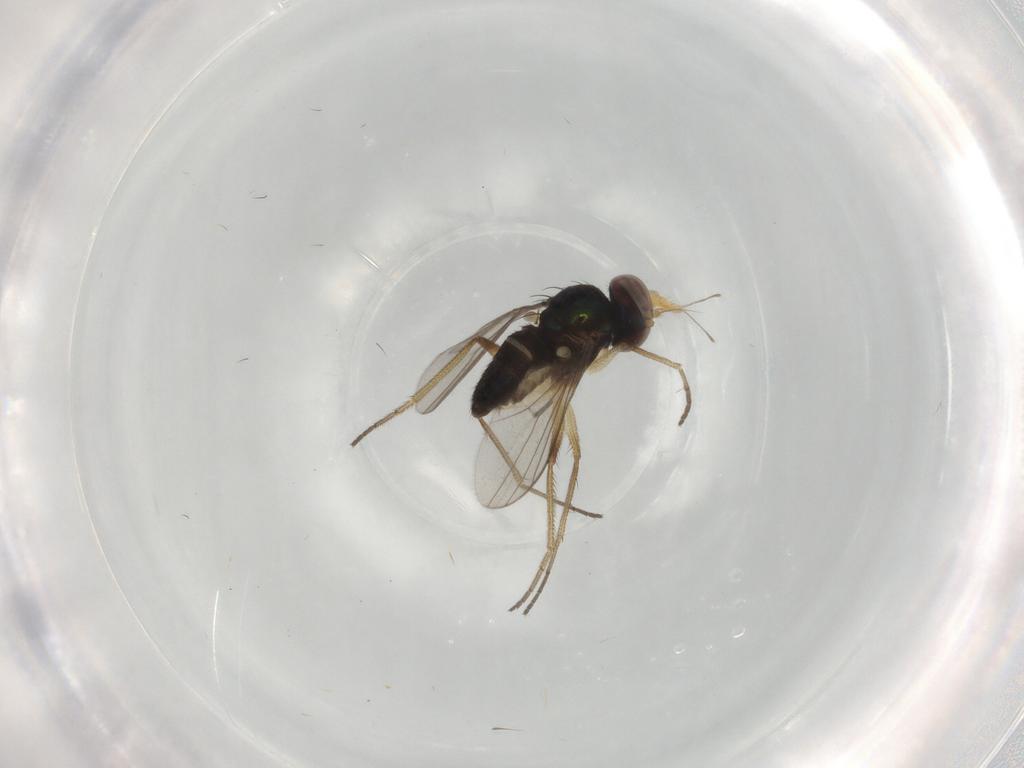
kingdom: Animalia
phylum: Arthropoda
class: Insecta
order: Diptera
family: Dolichopodidae
